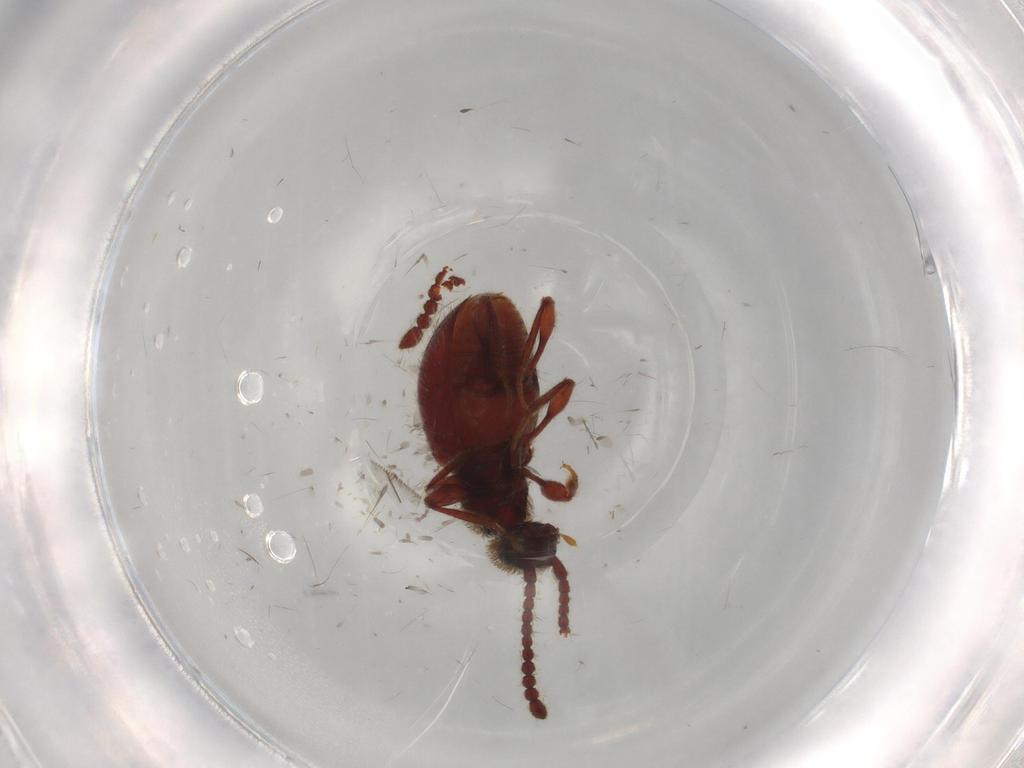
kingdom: Animalia
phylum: Arthropoda
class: Insecta
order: Coleoptera
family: Staphylinidae
